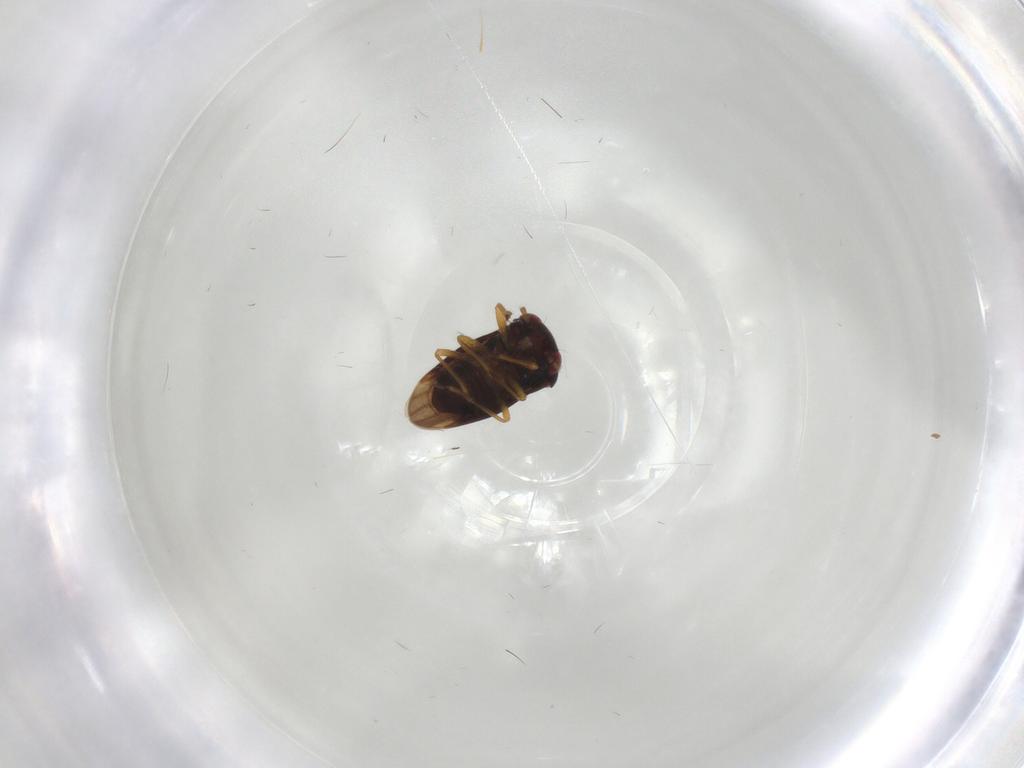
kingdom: Animalia
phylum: Arthropoda
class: Insecta
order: Hemiptera
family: Schizopteridae
